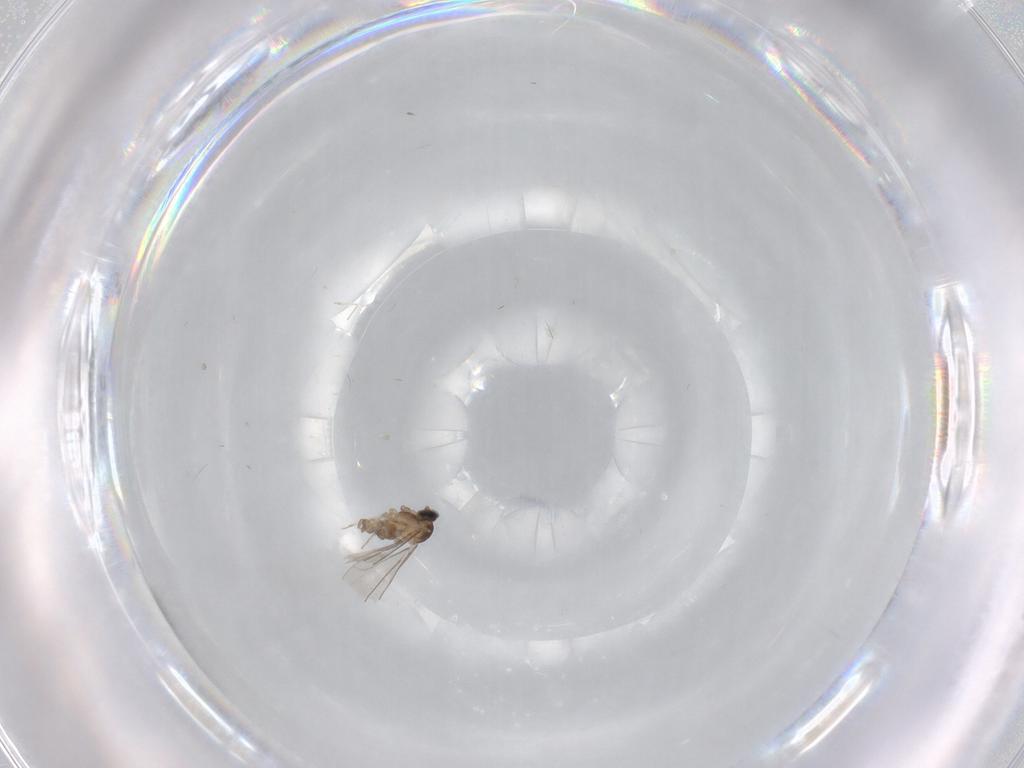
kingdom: Animalia
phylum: Arthropoda
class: Insecta
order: Diptera
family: Cecidomyiidae
